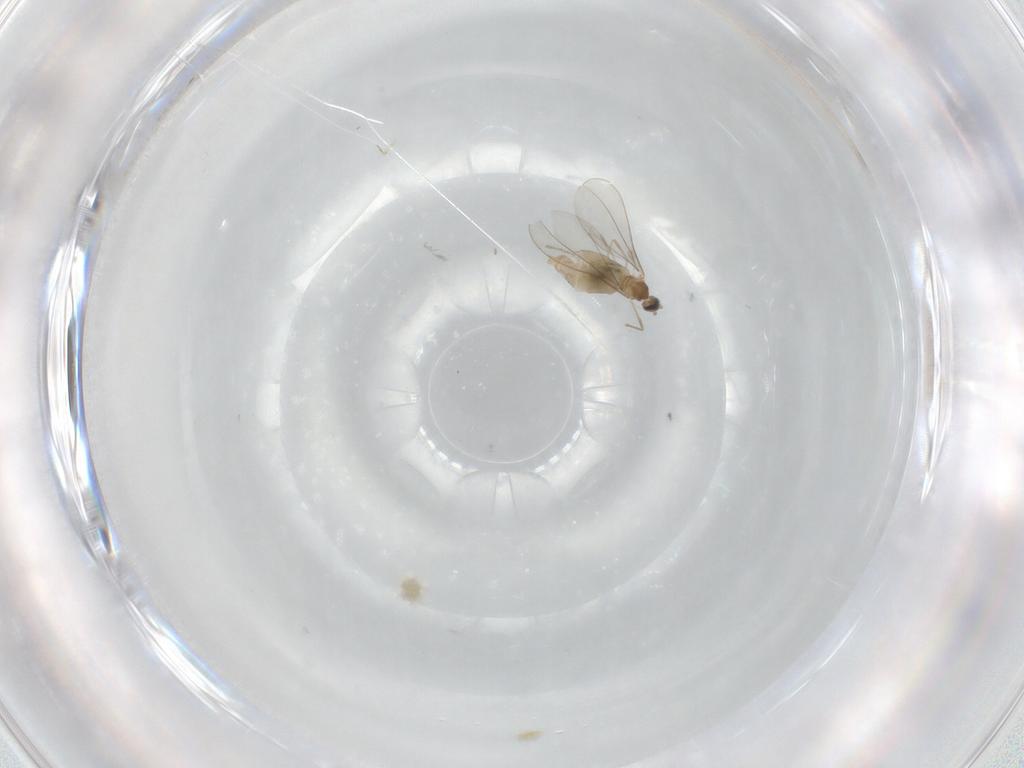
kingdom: Animalia
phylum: Arthropoda
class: Insecta
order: Diptera
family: Cecidomyiidae
